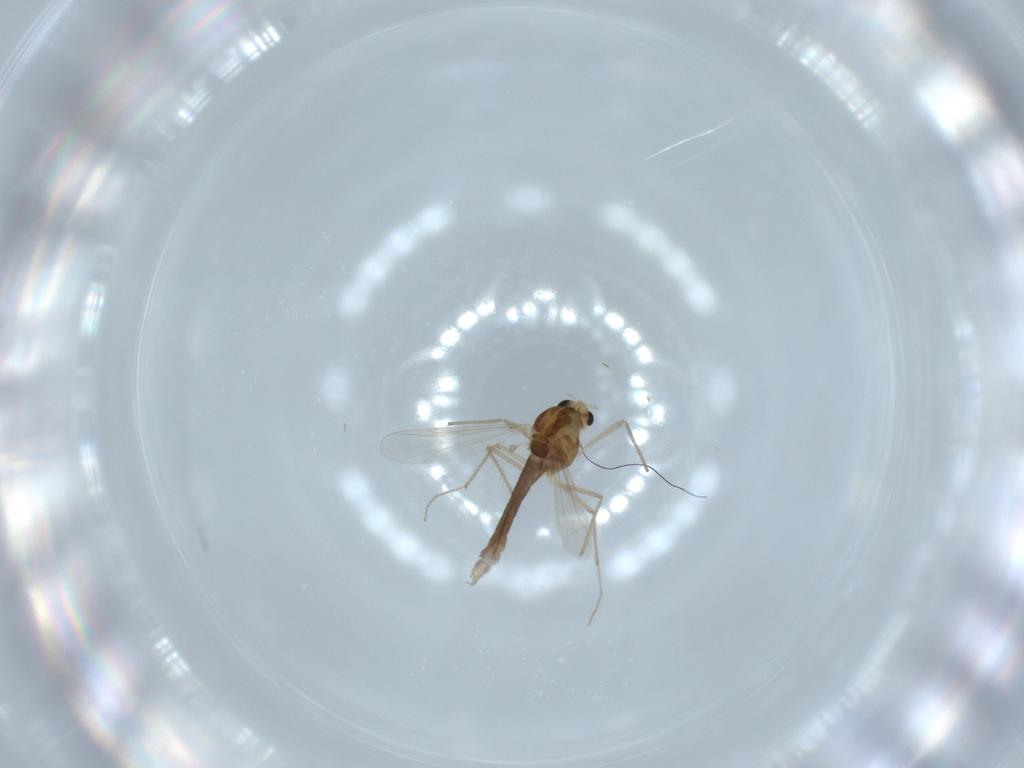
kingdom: Animalia
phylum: Arthropoda
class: Insecta
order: Diptera
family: Chironomidae
